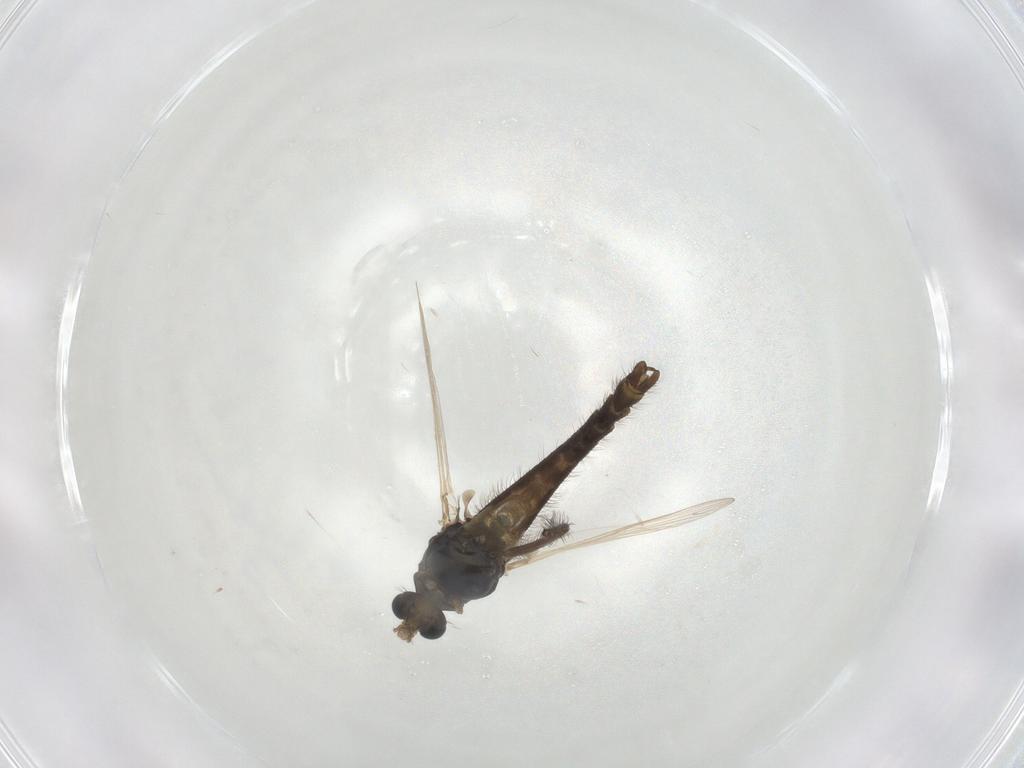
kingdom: Animalia
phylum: Arthropoda
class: Insecta
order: Diptera
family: Chironomidae
